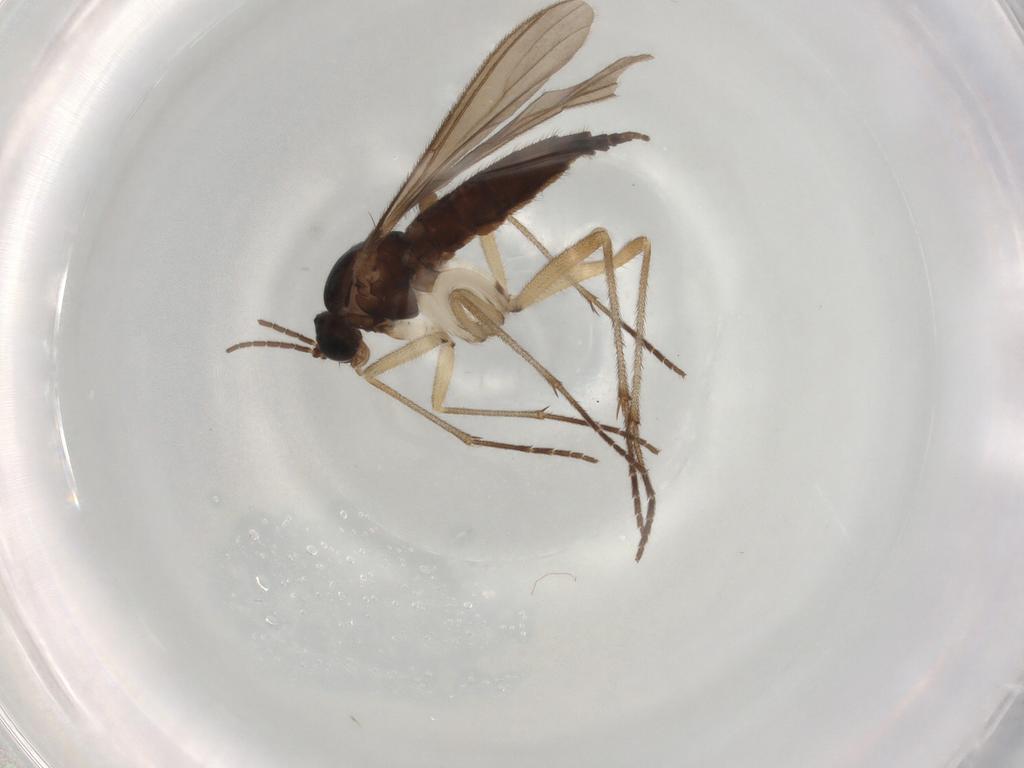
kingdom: Animalia
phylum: Arthropoda
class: Insecta
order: Diptera
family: Sciaridae
